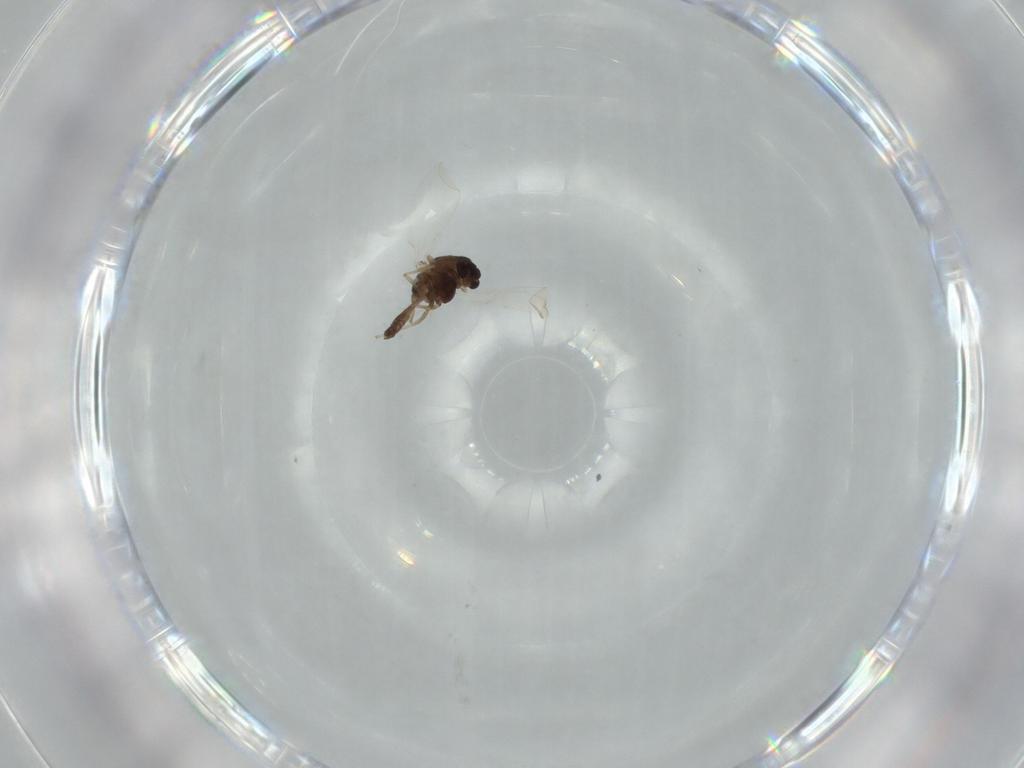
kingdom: Animalia
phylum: Arthropoda
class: Insecta
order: Diptera
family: Chironomidae
